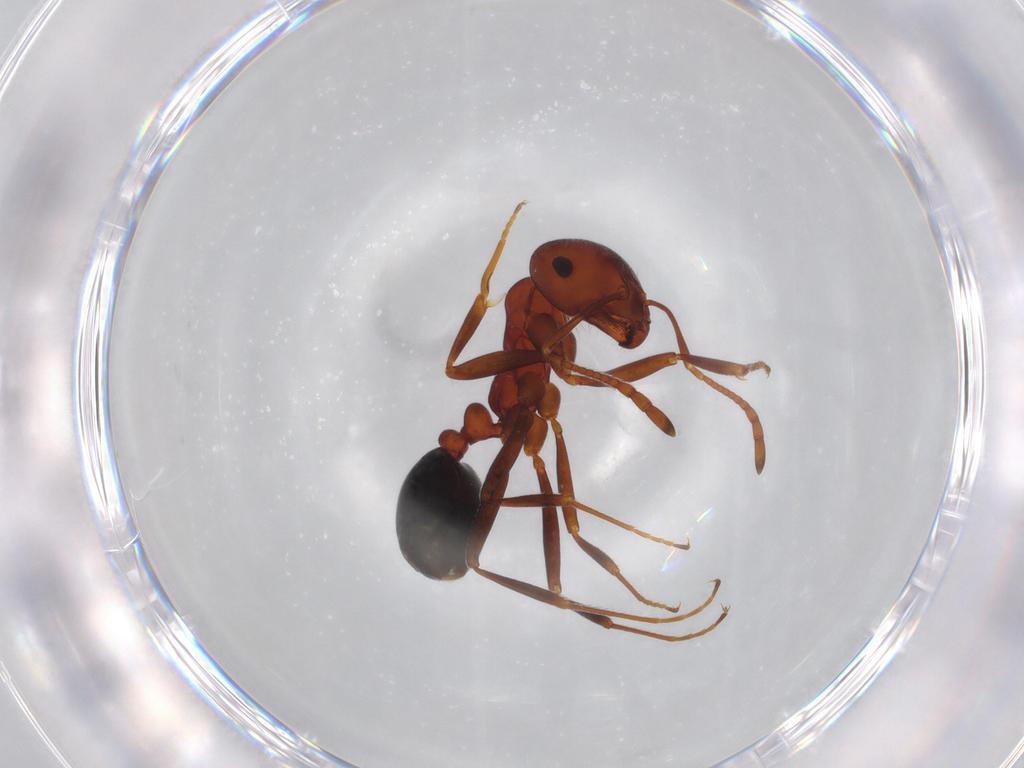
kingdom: Animalia
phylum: Arthropoda
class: Insecta
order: Hymenoptera
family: Formicidae
